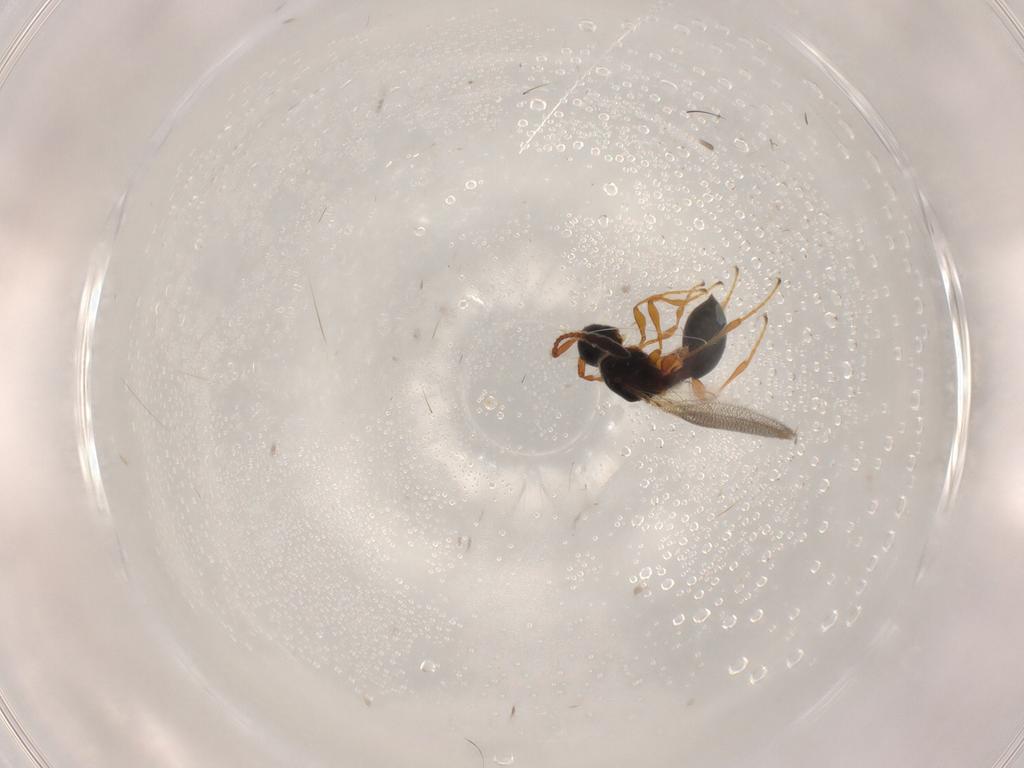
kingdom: Animalia
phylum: Arthropoda
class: Insecta
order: Hymenoptera
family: Diapriidae
